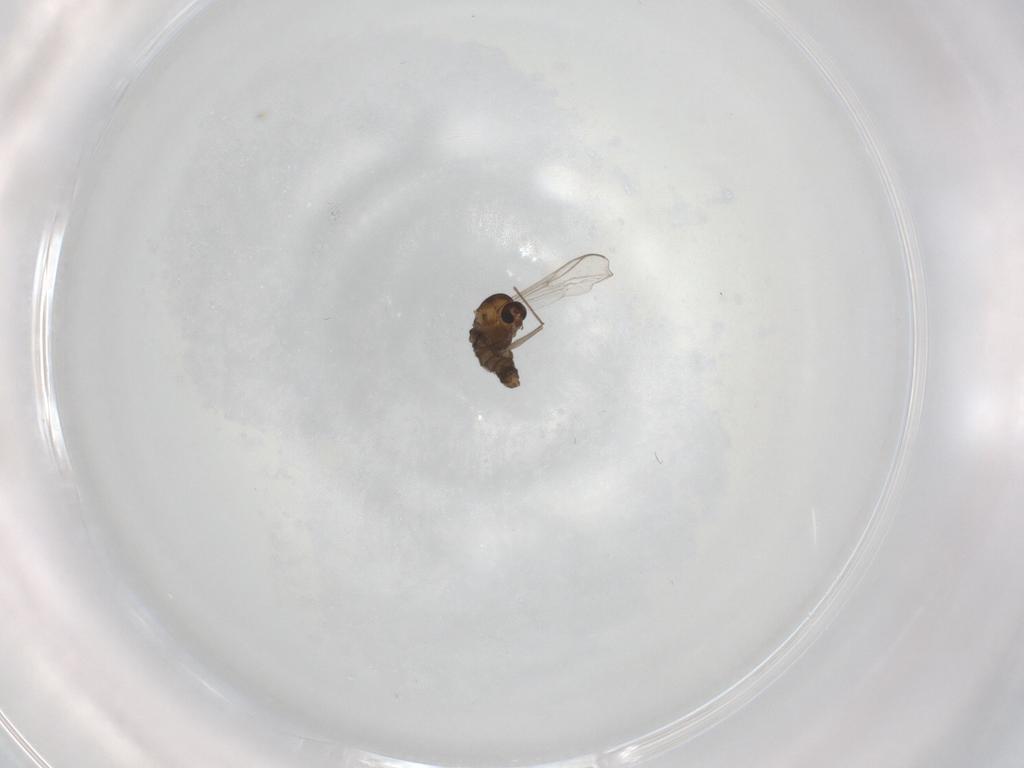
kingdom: Animalia
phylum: Arthropoda
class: Insecta
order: Diptera
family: Chironomidae
